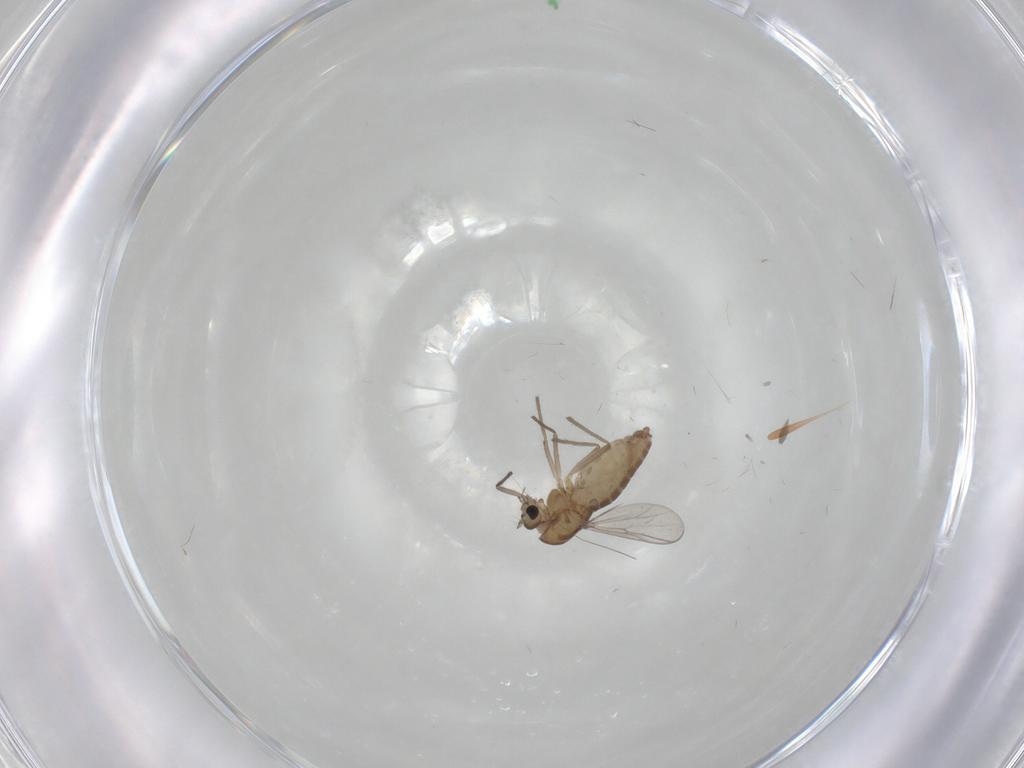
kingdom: Animalia
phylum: Arthropoda
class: Insecta
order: Diptera
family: Chironomidae
